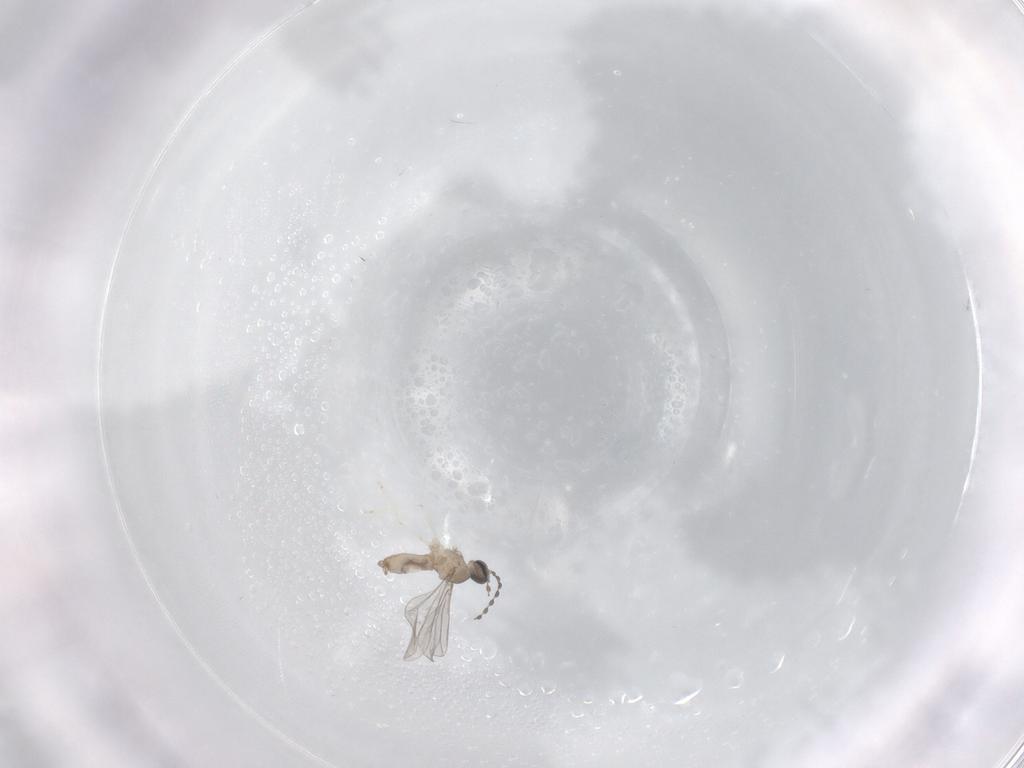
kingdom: Animalia
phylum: Arthropoda
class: Insecta
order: Diptera
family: Cecidomyiidae
